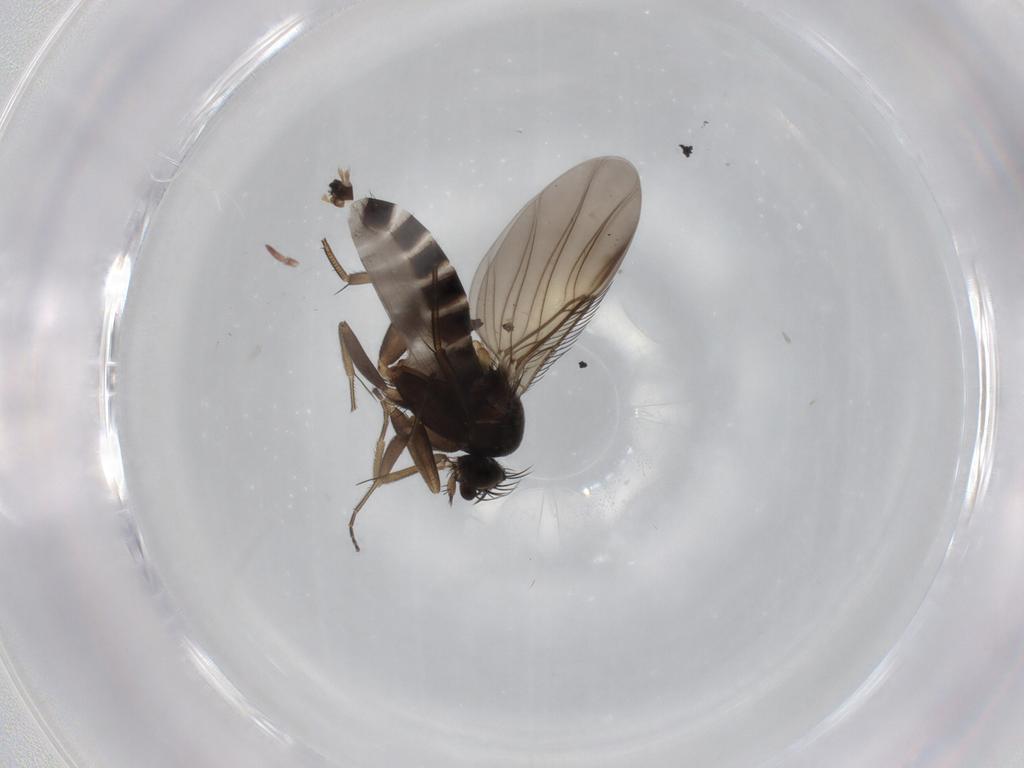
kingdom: Animalia
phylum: Arthropoda
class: Insecta
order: Diptera
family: Phoridae
